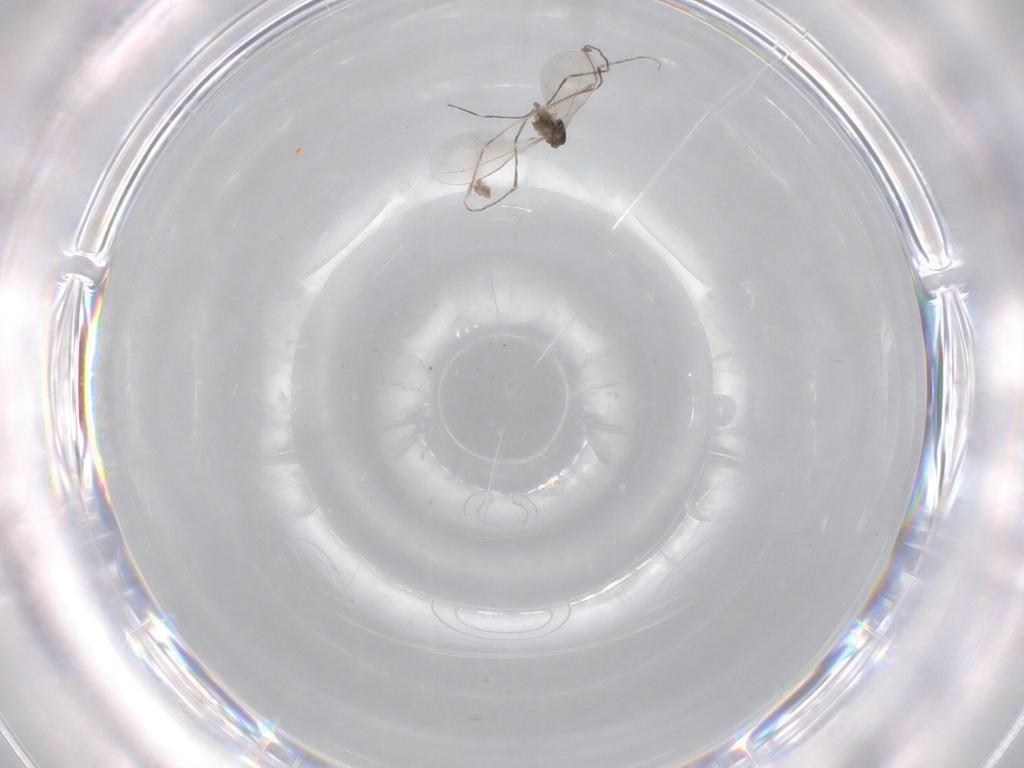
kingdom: Animalia
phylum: Arthropoda
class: Insecta
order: Diptera
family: Cecidomyiidae
